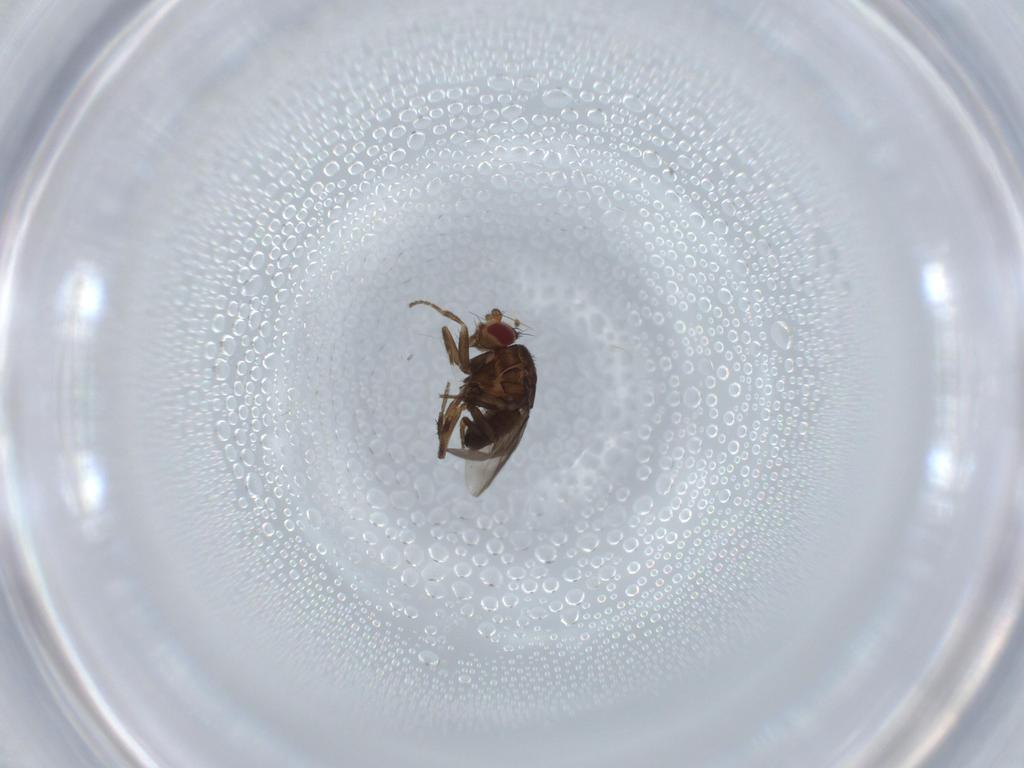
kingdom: Animalia
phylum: Arthropoda
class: Insecta
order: Diptera
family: Sphaeroceridae
